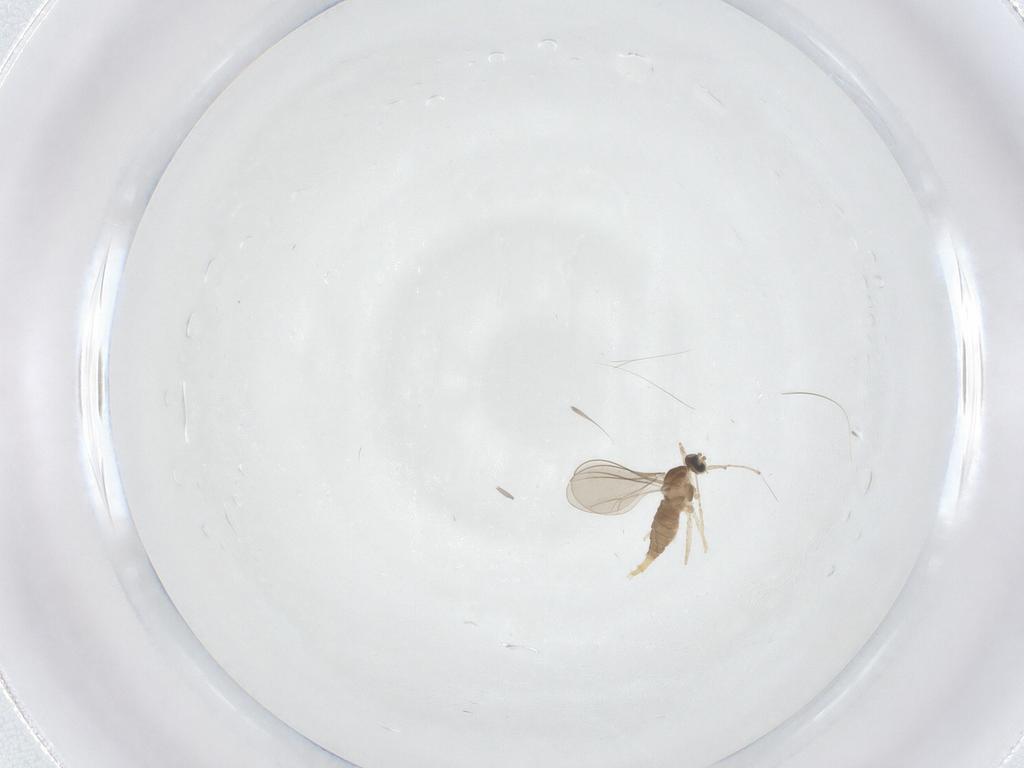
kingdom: Animalia
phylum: Arthropoda
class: Insecta
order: Diptera
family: Cecidomyiidae
